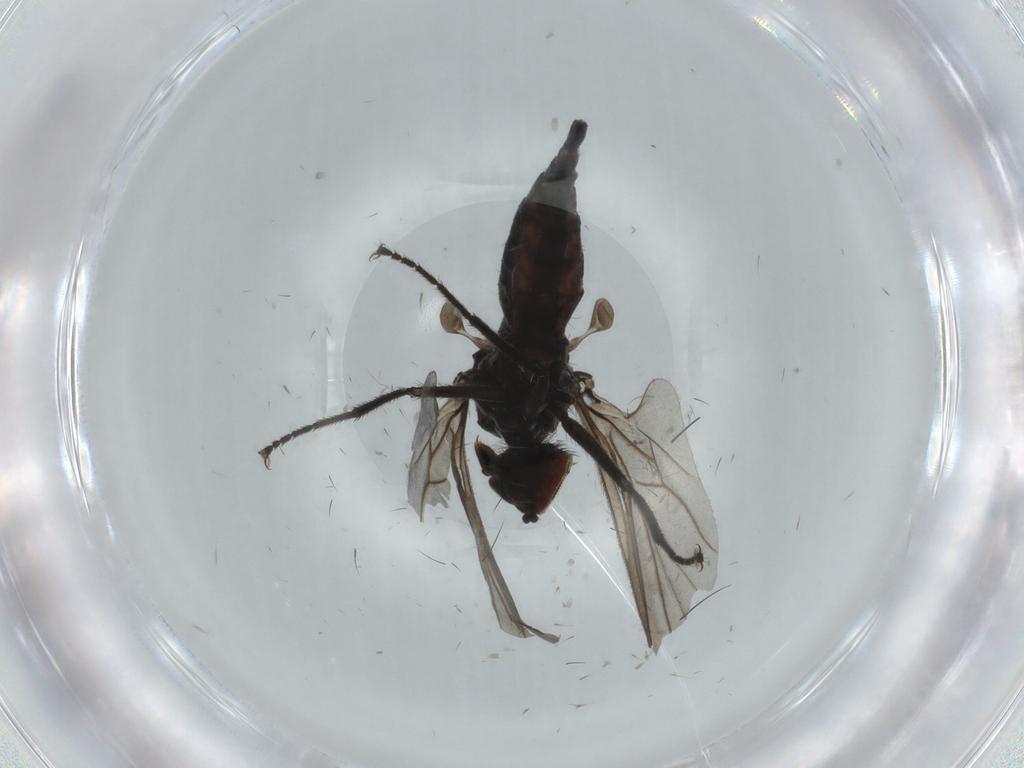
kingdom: Animalia
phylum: Arthropoda
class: Insecta
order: Diptera
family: Hybotidae
